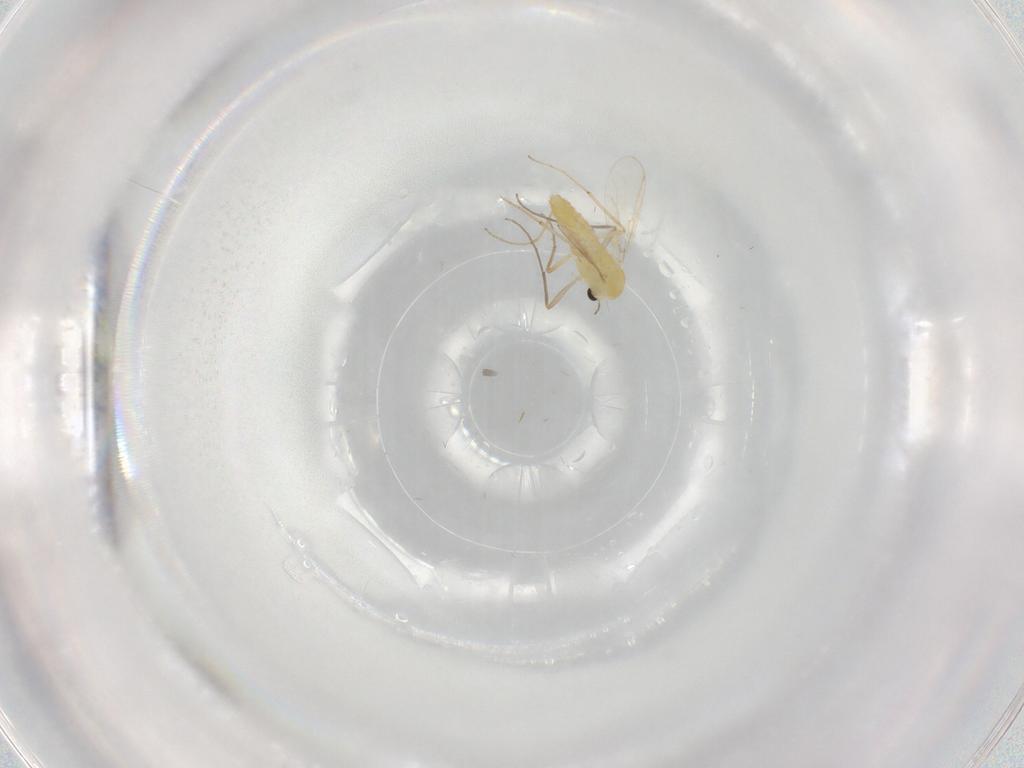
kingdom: Animalia
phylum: Arthropoda
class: Insecta
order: Diptera
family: Chironomidae
